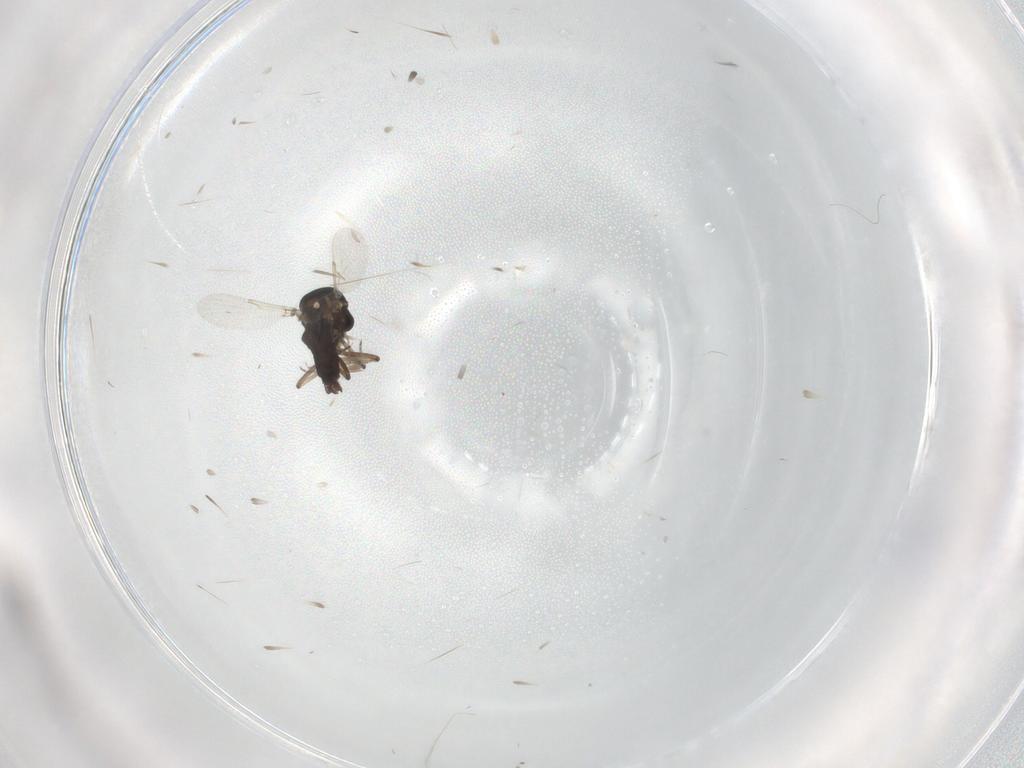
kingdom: Animalia
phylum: Arthropoda
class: Insecta
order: Diptera
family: Ceratopogonidae
